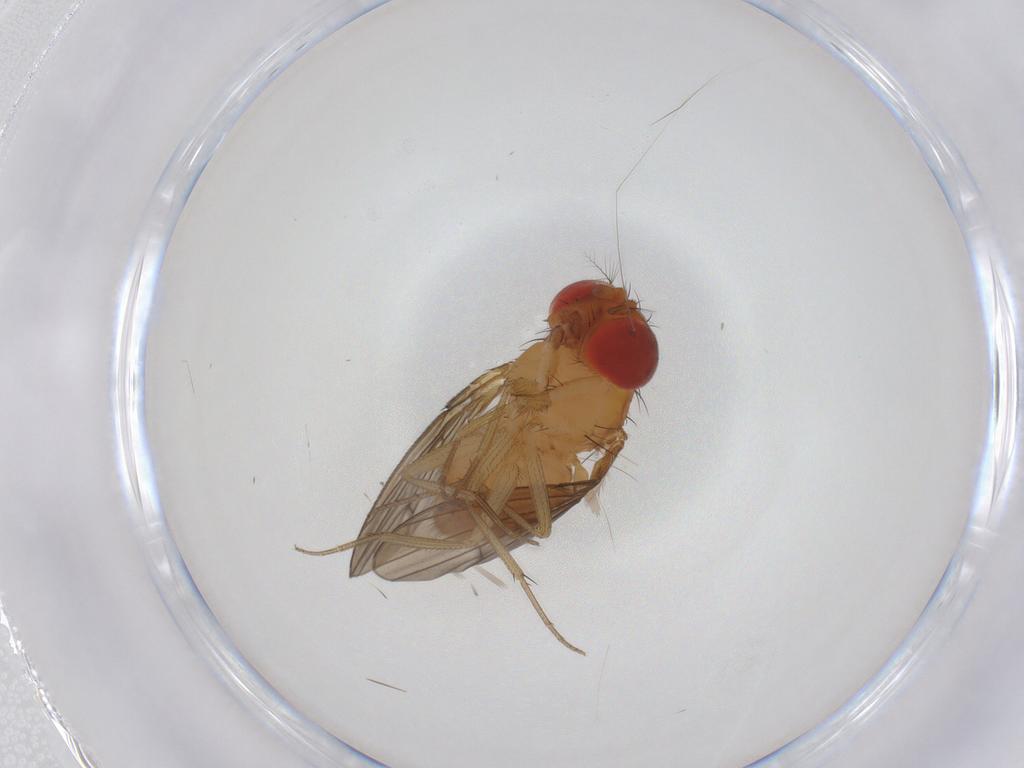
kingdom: Animalia
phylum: Arthropoda
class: Insecta
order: Diptera
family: Drosophilidae
